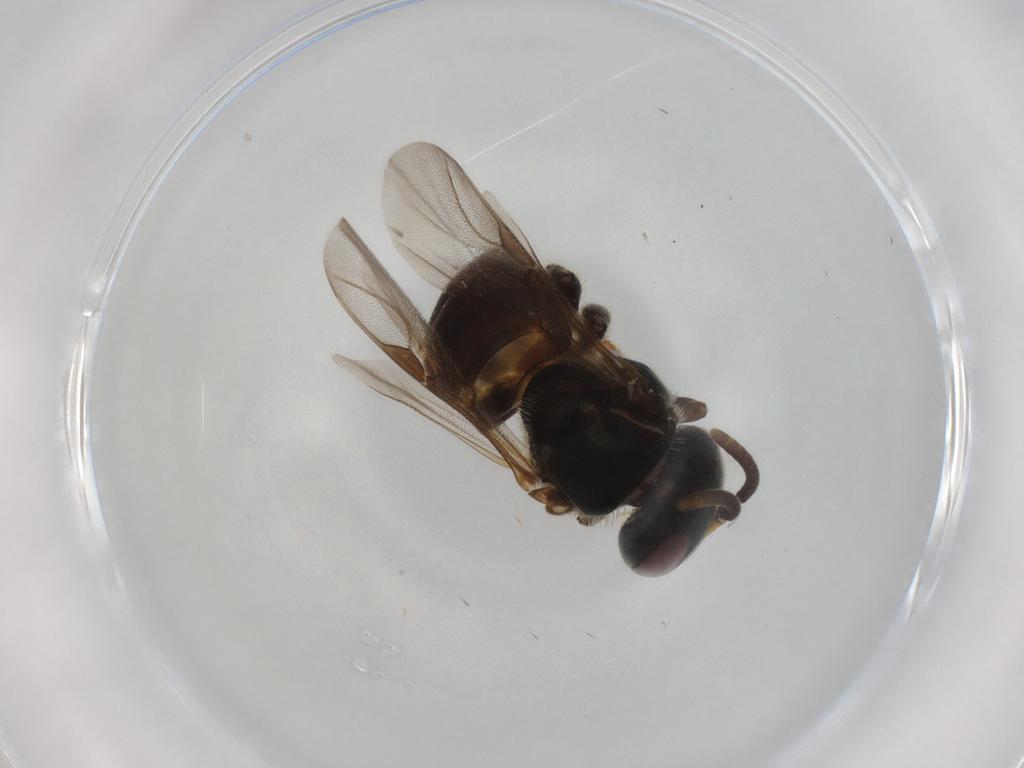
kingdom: Animalia
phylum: Arthropoda
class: Insecta
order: Hymenoptera
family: Apidae
